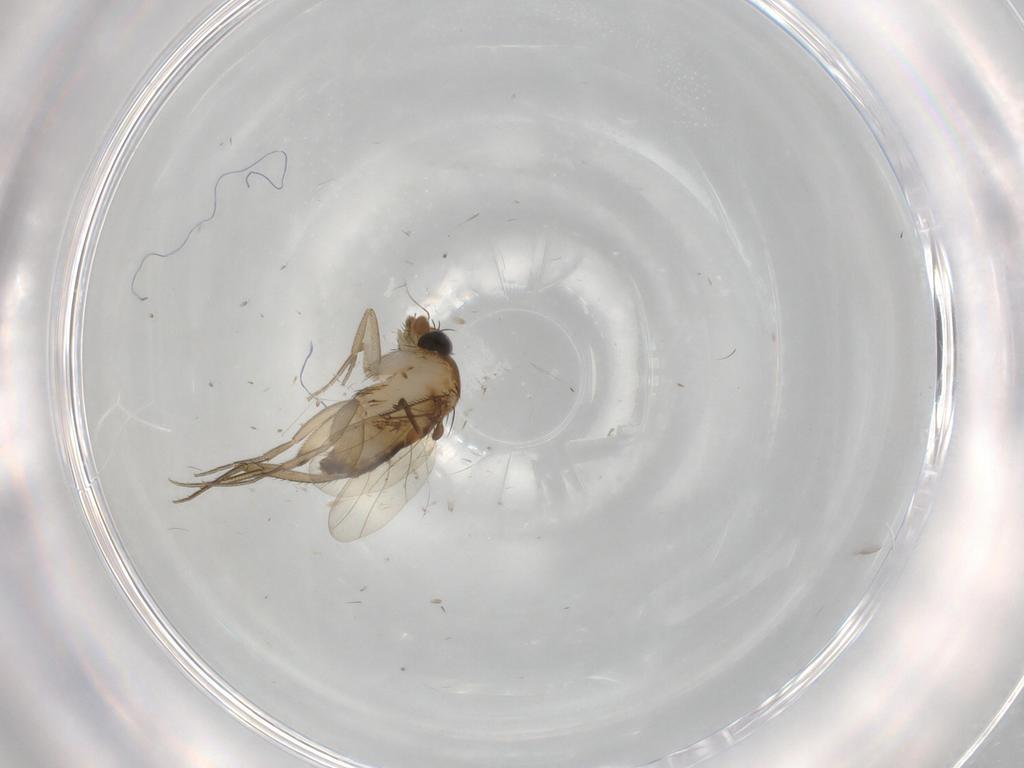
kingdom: Animalia
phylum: Arthropoda
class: Insecta
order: Diptera
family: Phoridae
